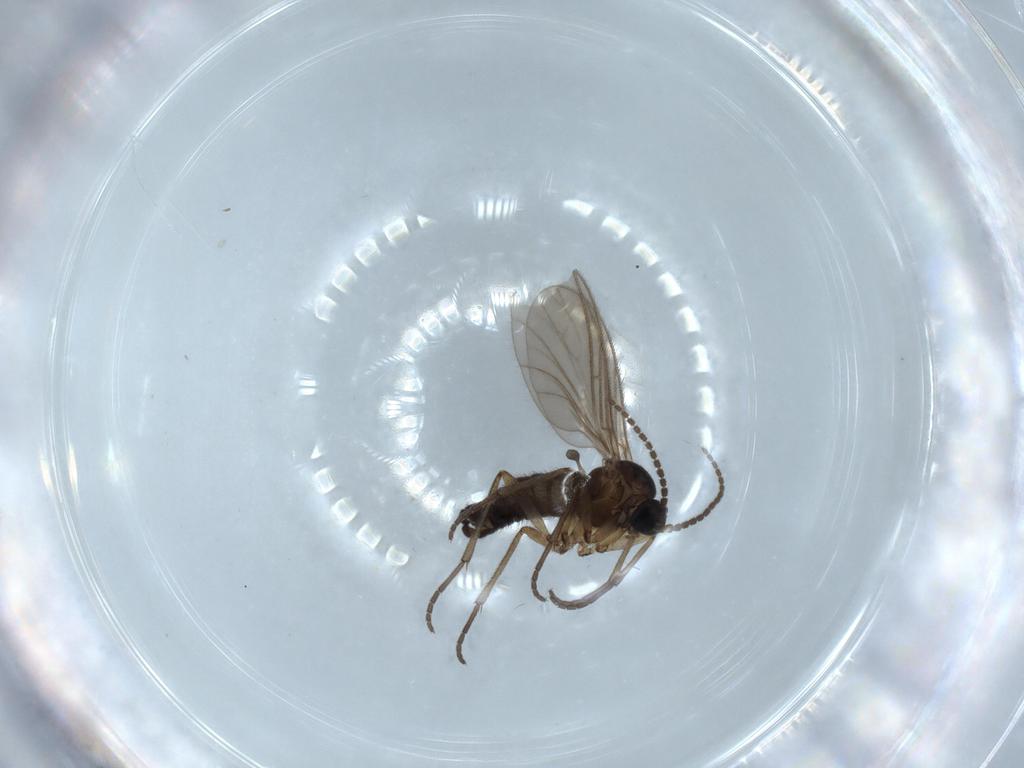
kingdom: Animalia
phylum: Arthropoda
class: Insecta
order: Diptera
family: Sciaridae
